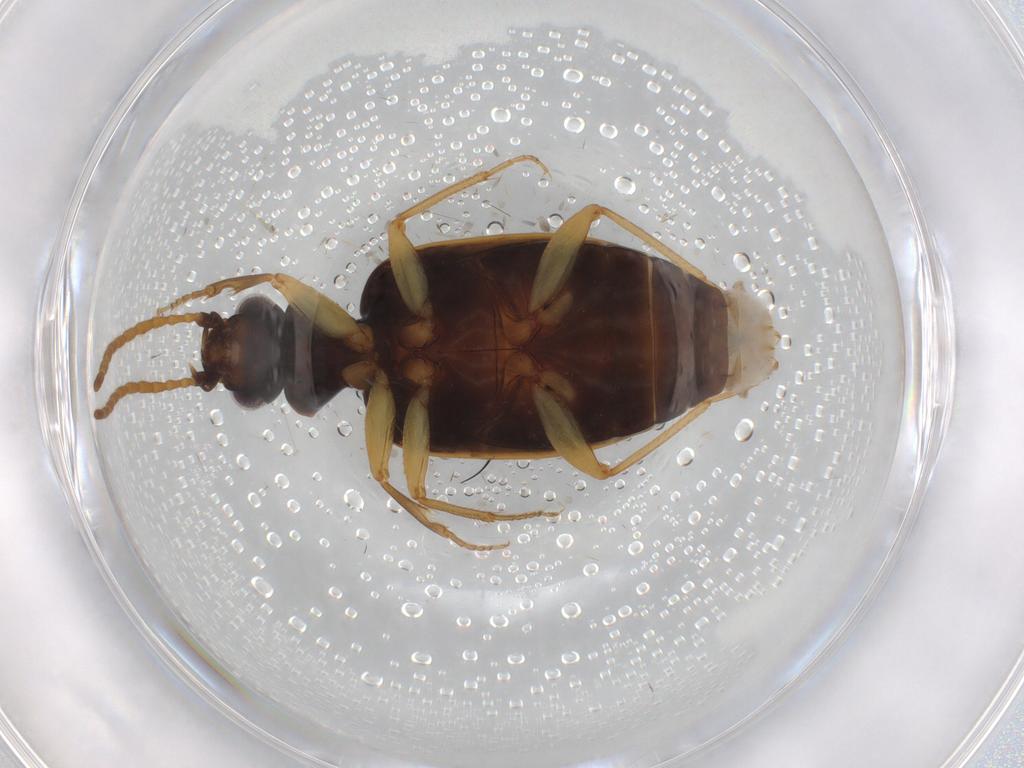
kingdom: Animalia
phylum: Arthropoda
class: Insecta
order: Coleoptera
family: Carabidae
